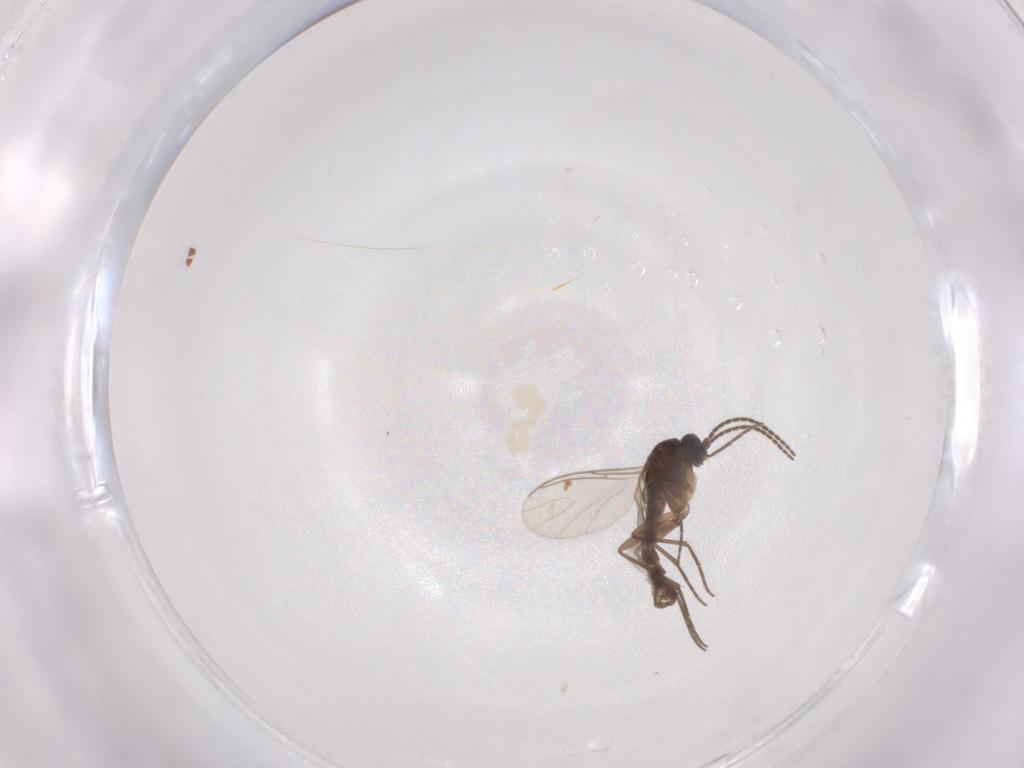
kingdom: Animalia
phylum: Arthropoda
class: Insecta
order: Diptera
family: Sciaridae
